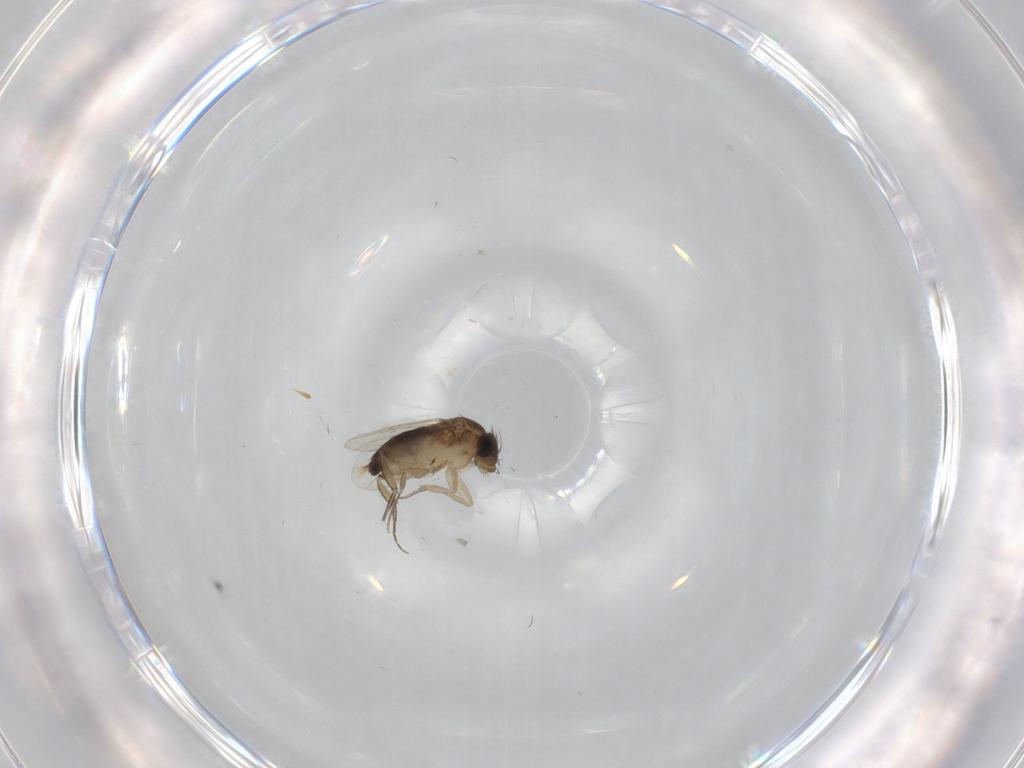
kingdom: Animalia
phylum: Arthropoda
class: Insecta
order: Diptera
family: Phoridae
